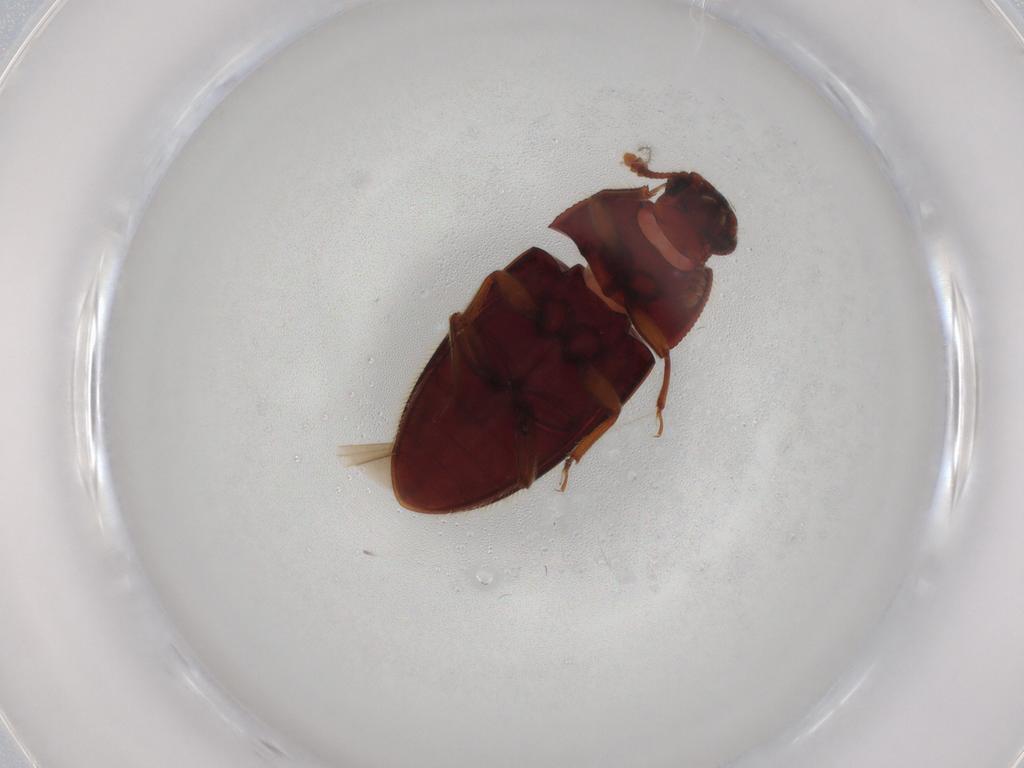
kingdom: Animalia
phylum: Arthropoda
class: Insecta
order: Coleoptera
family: Biphyllidae
